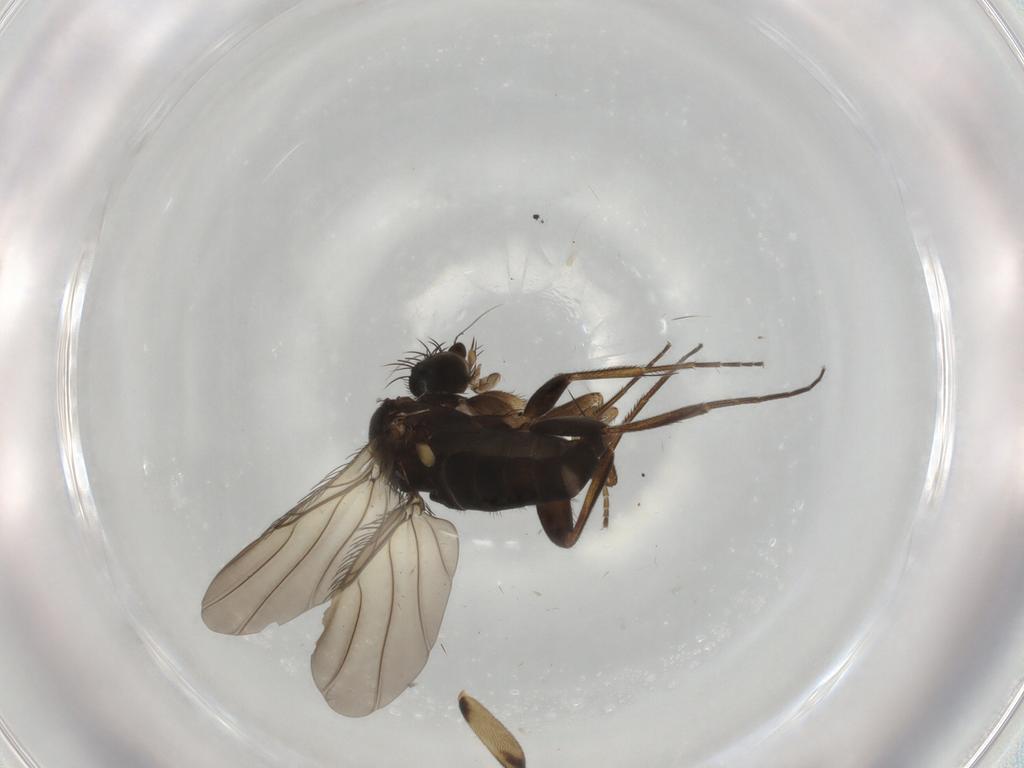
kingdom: Animalia
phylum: Arthropoda
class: Insecta
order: Diptera
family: Phoridae
